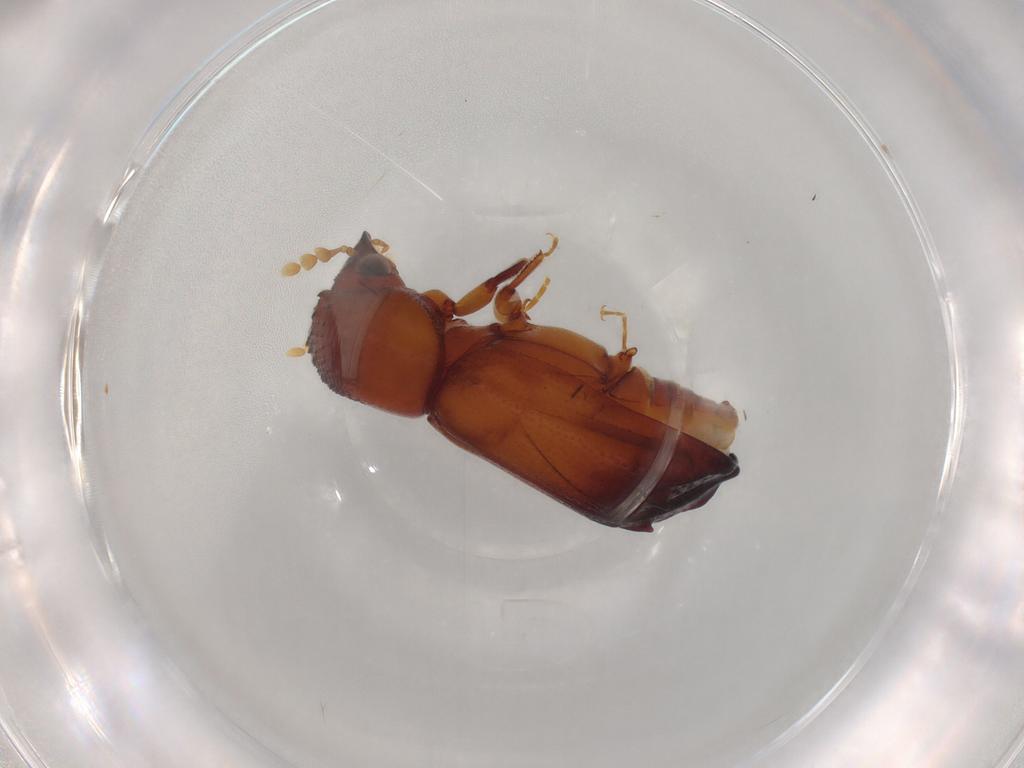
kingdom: Animalia
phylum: Arthropoda
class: Insecta
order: Coleoptera
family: Bostrichidae
